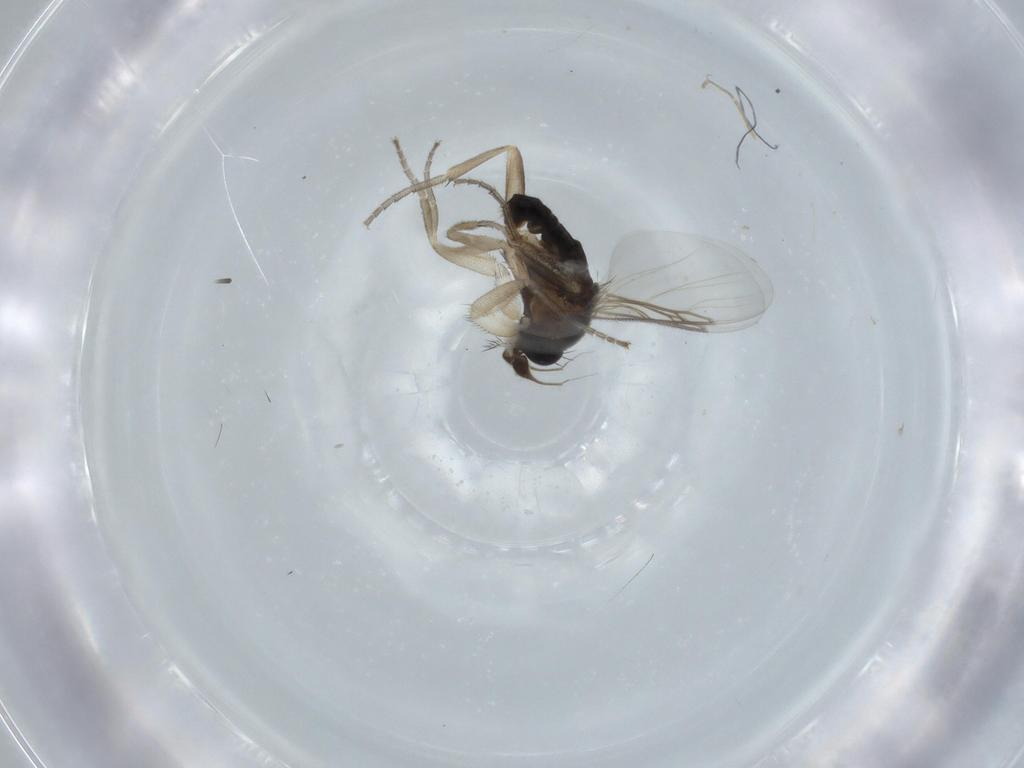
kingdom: Animalia
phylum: Arthropoda
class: Insecta
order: Diptera
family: Phoridae
